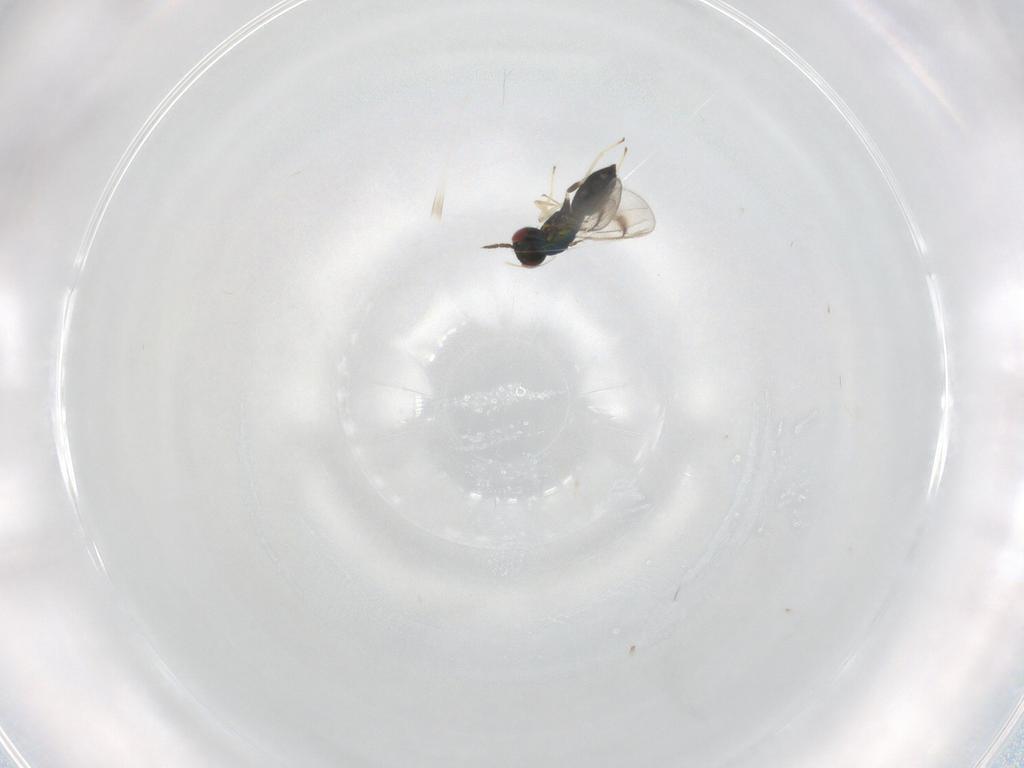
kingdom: Animalia
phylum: Arthropoda
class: Insecta
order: Hymenoptera
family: Eulophidae
